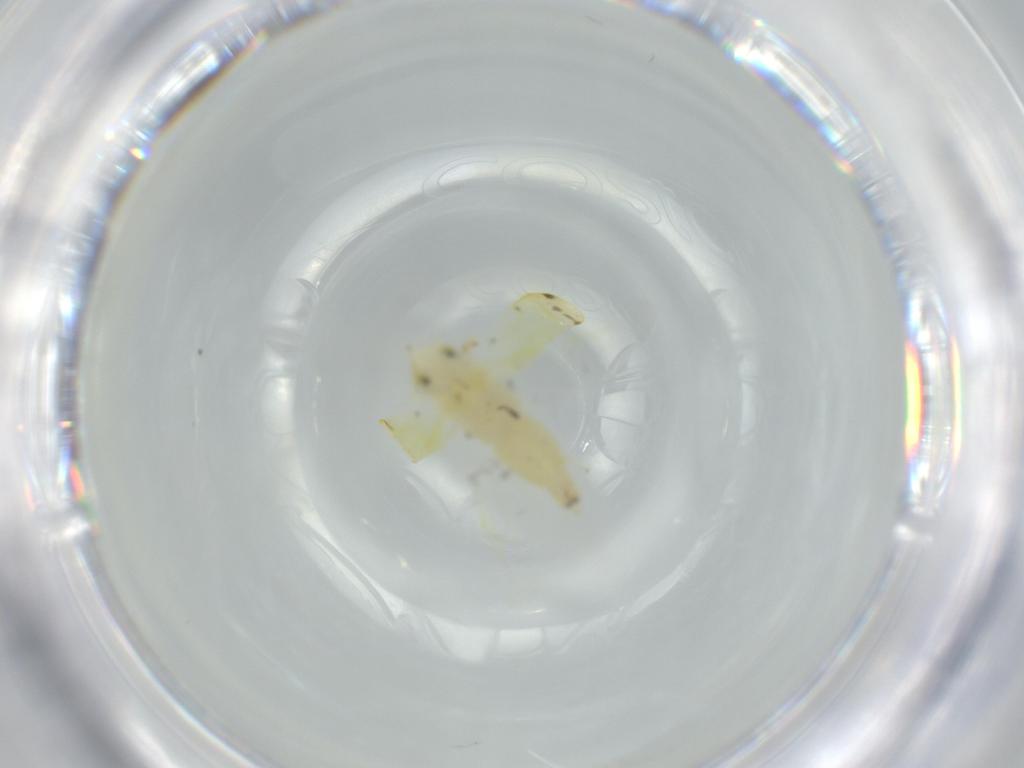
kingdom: Animalia
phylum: Arthropoda
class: Insecta
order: Hemiptera
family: Cicadellidae
